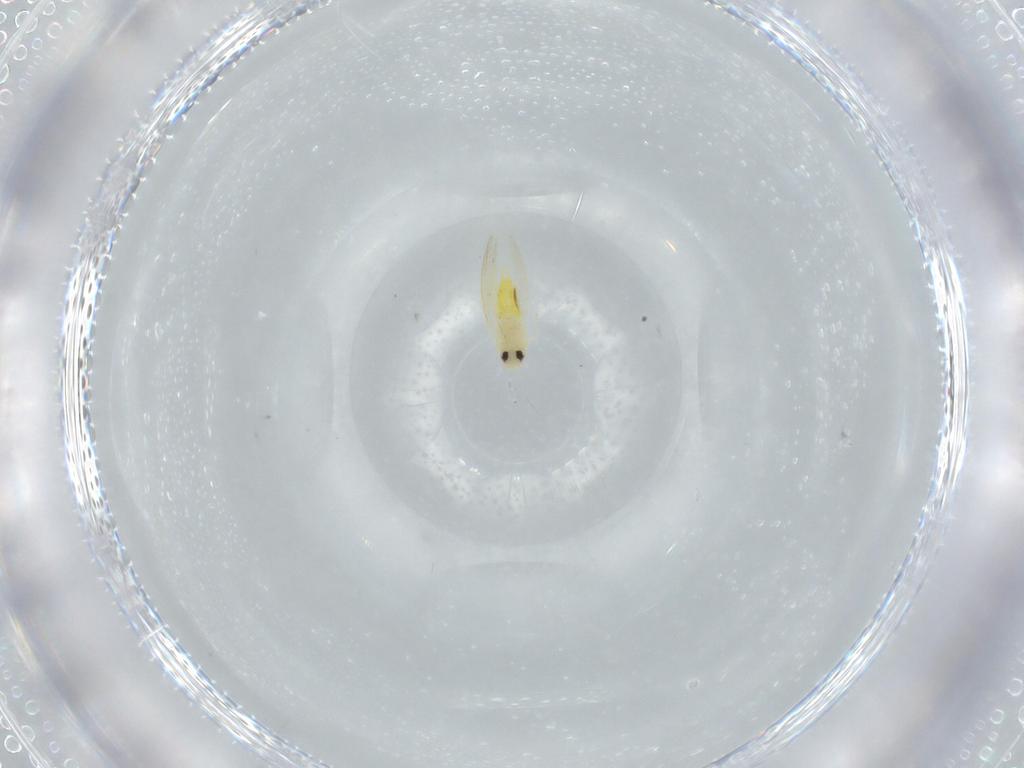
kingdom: Animalia
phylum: Arthropoda
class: Insecta
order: Hemiptera
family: Aleyrodidae
